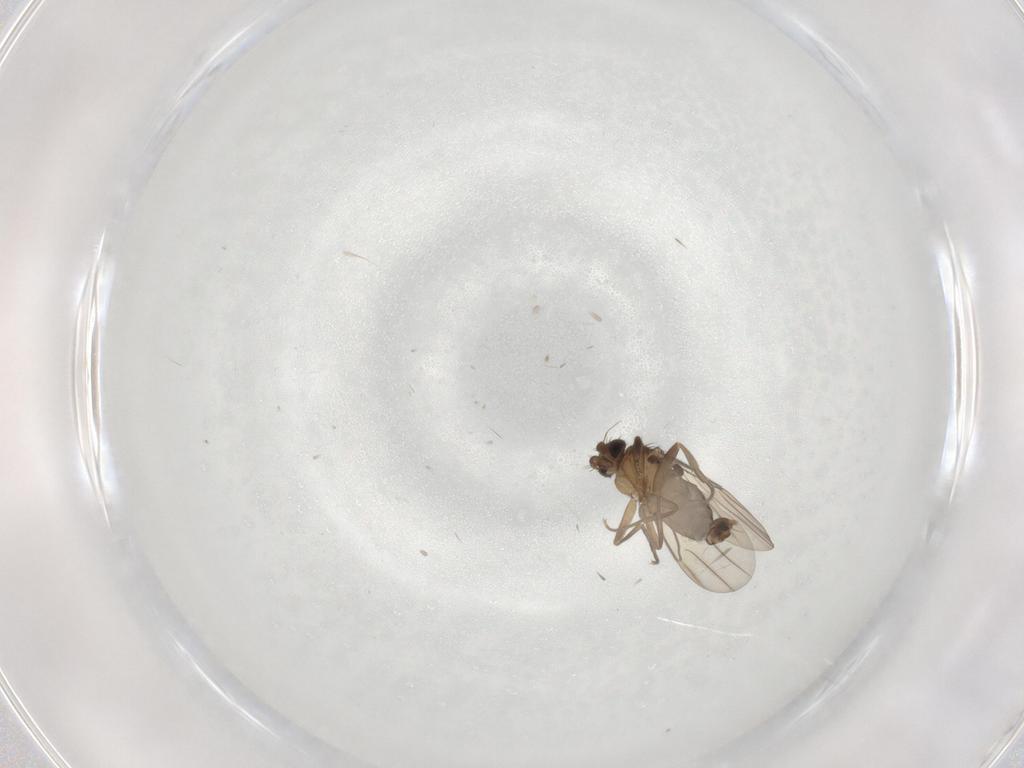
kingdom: Animalia
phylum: Arthropoda
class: Insecta
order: Diptera
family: Phoridae
